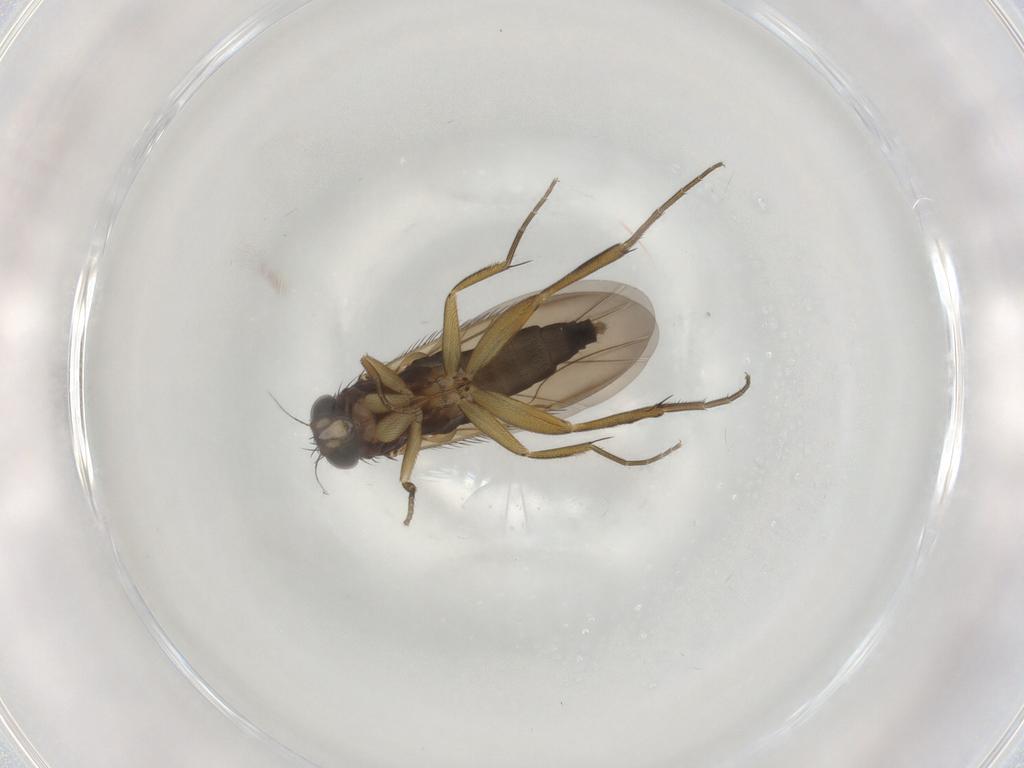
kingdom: Animalia
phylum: Arthropoda
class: Insecta
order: Diptera
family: Phoridae
